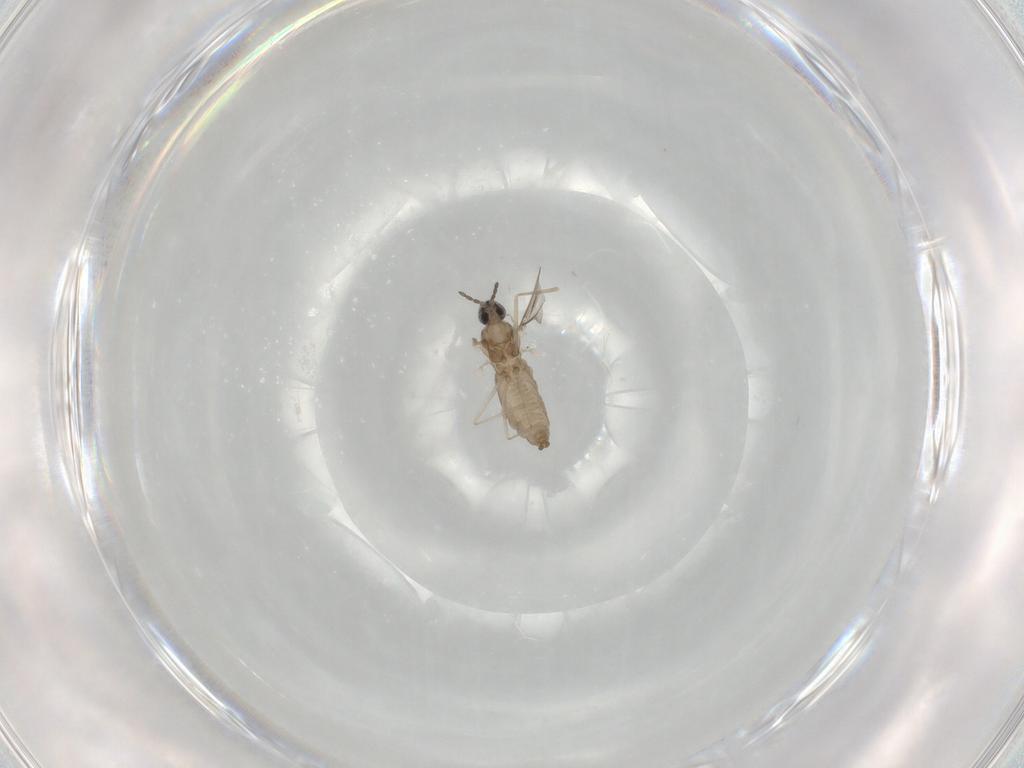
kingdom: Animalia
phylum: Arthropoda
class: Insecta
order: Diptera
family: Cecidomyiidae
